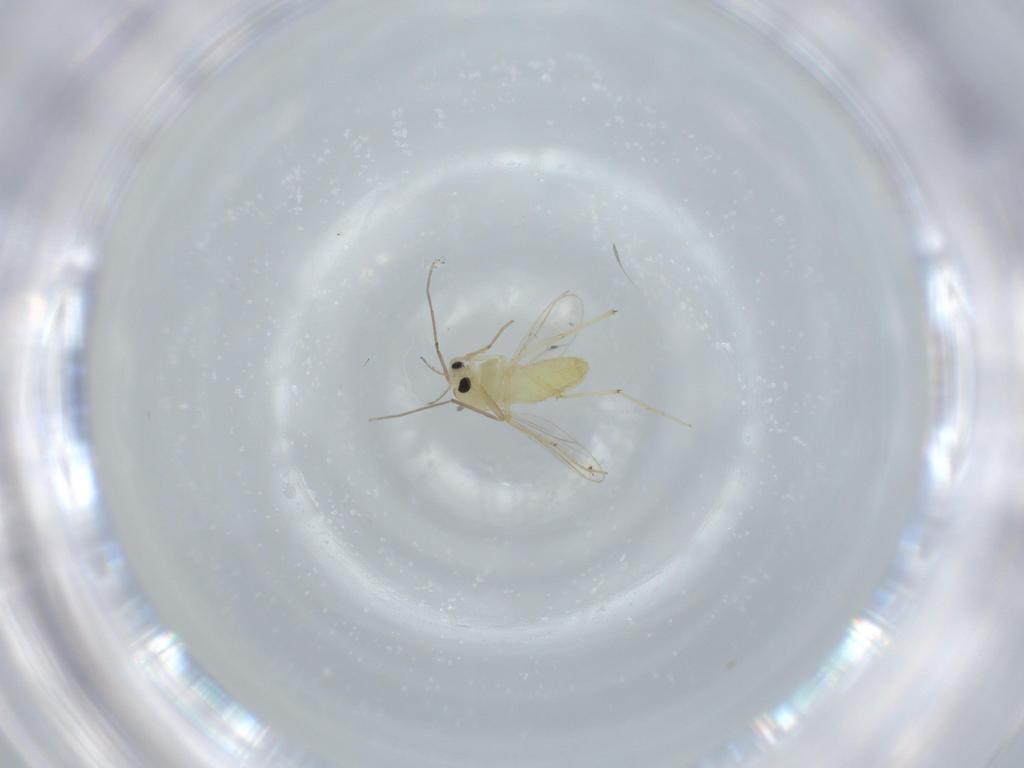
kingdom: Animalia
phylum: Arthropoda
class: Insecta
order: Diptera
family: Chironomidae
